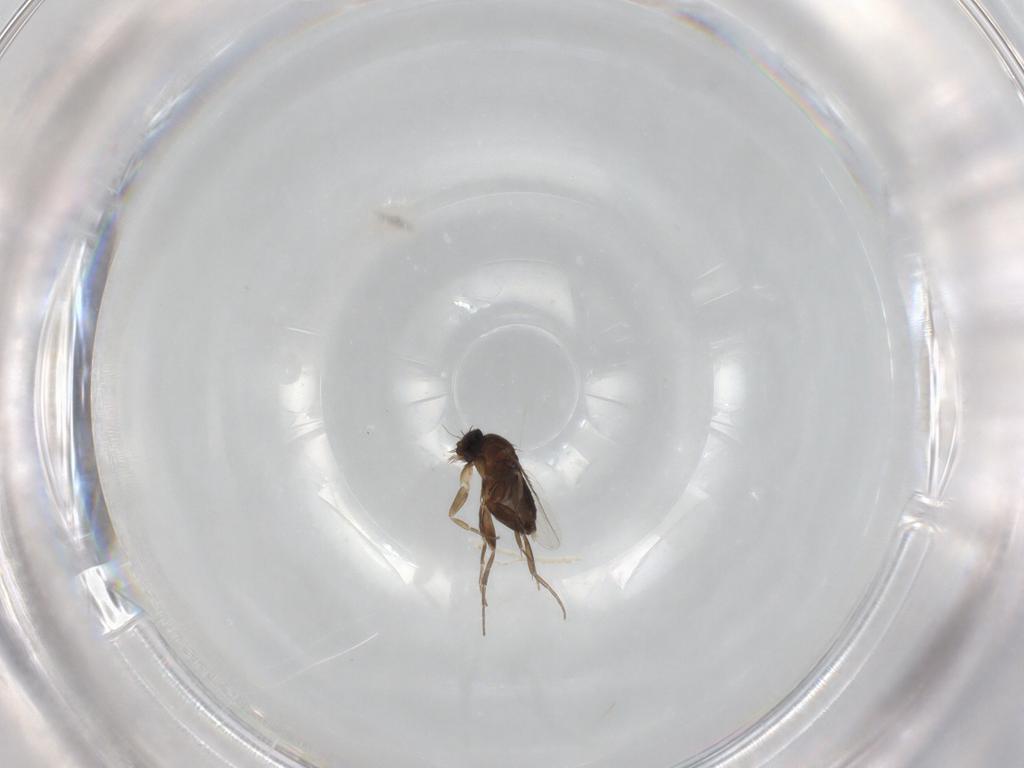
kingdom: Animalia
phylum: Arthropoda
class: Insecta
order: Diptera
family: Phoridae
